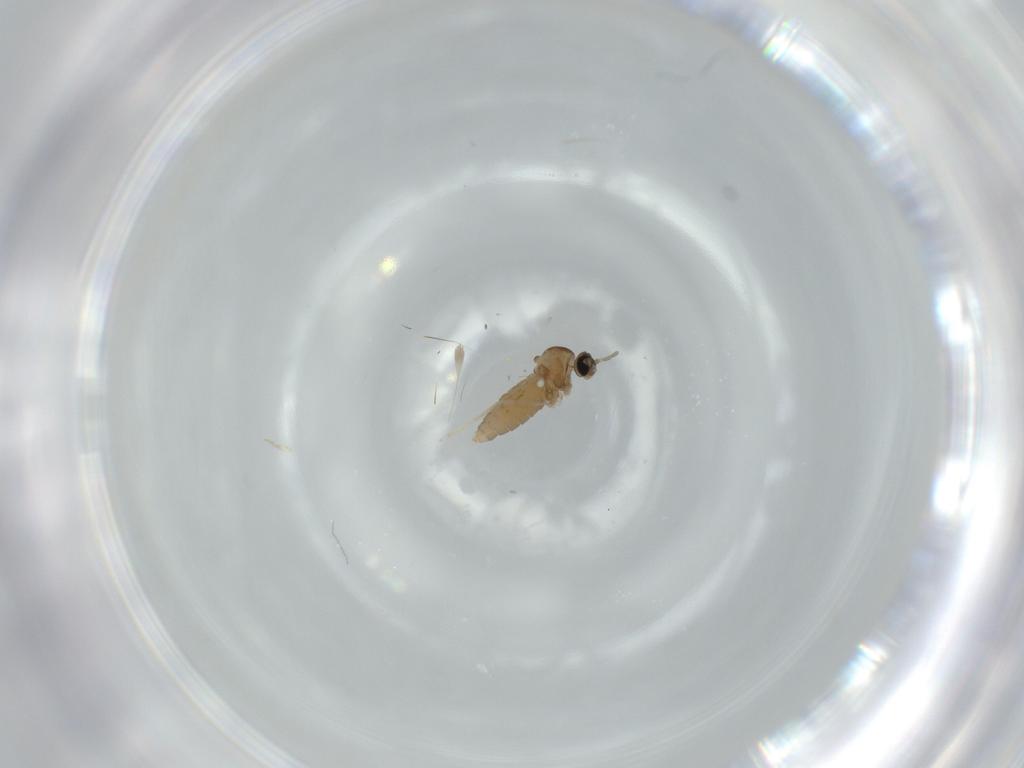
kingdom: Animalia
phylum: Arthropoda
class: Insecta
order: Diptera
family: Cecidomyiidae
